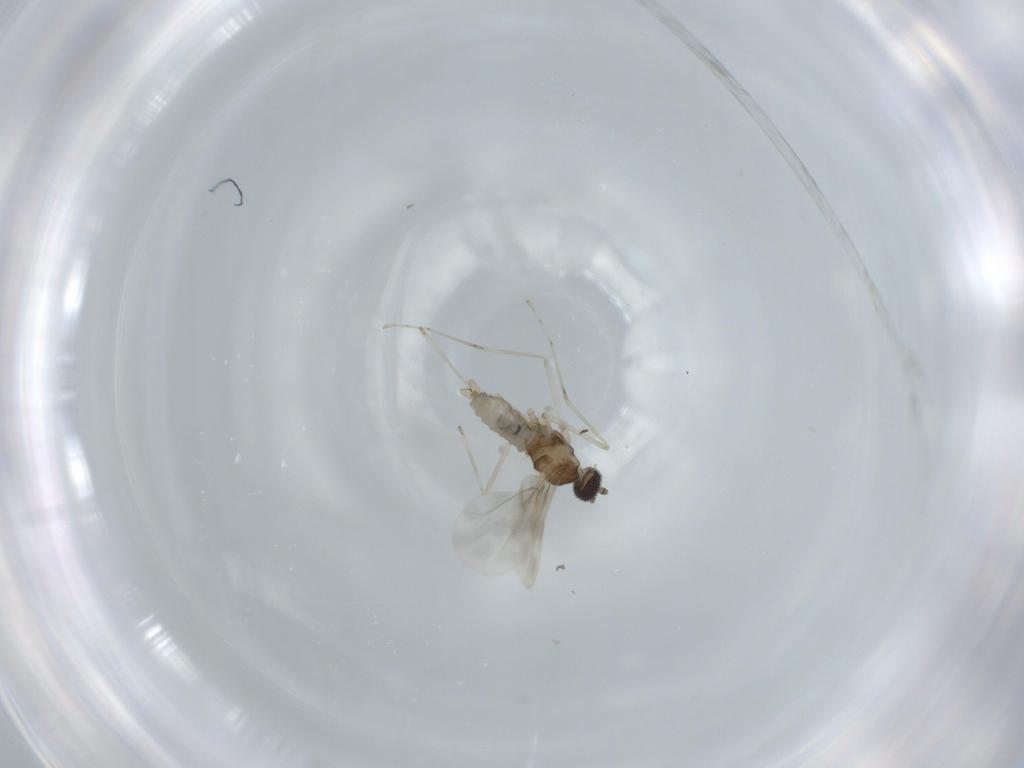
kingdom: Animalia
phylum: Arthropoda
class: Insecta
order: Diptera
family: Cecidomyiidae
